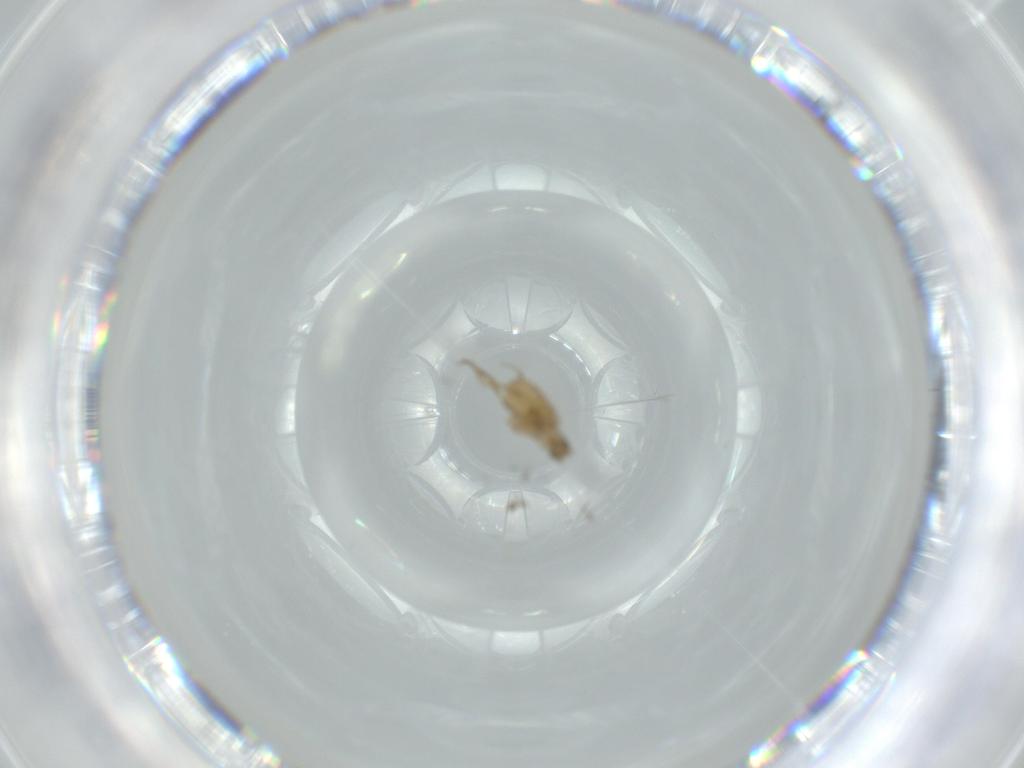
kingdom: Animalia
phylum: Arthropoda
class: Insecta
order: Diptera
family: Phoridae
